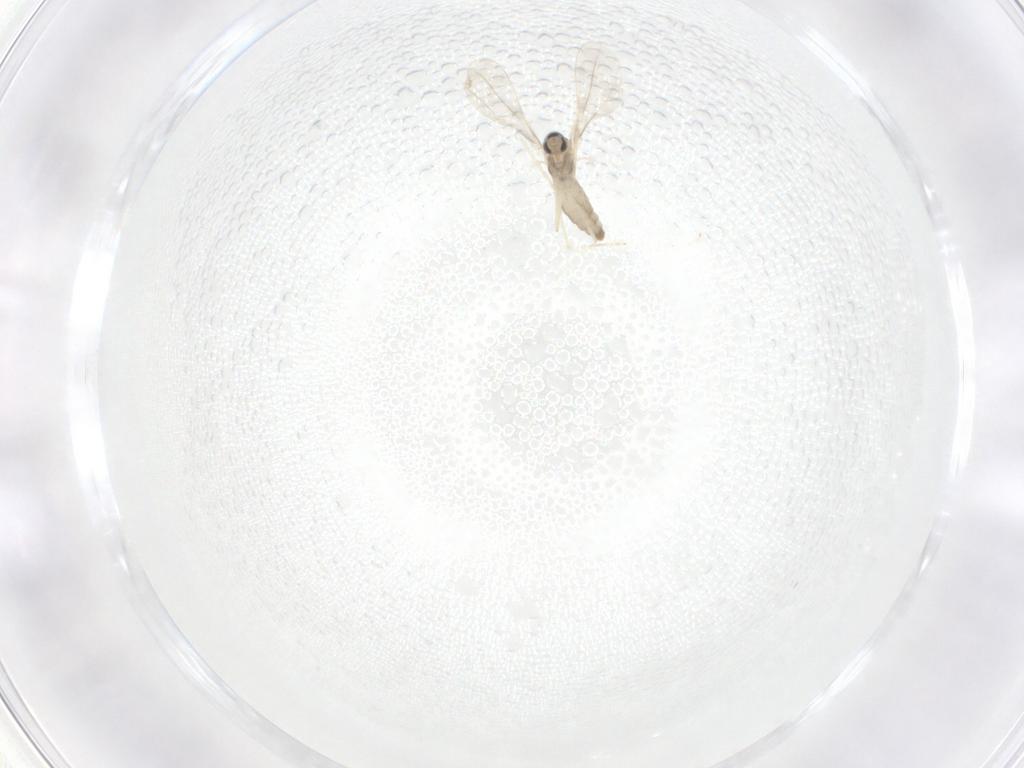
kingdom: Animalia
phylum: Arthropoda
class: Insecta
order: Diptera
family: Cecidomyiidae
